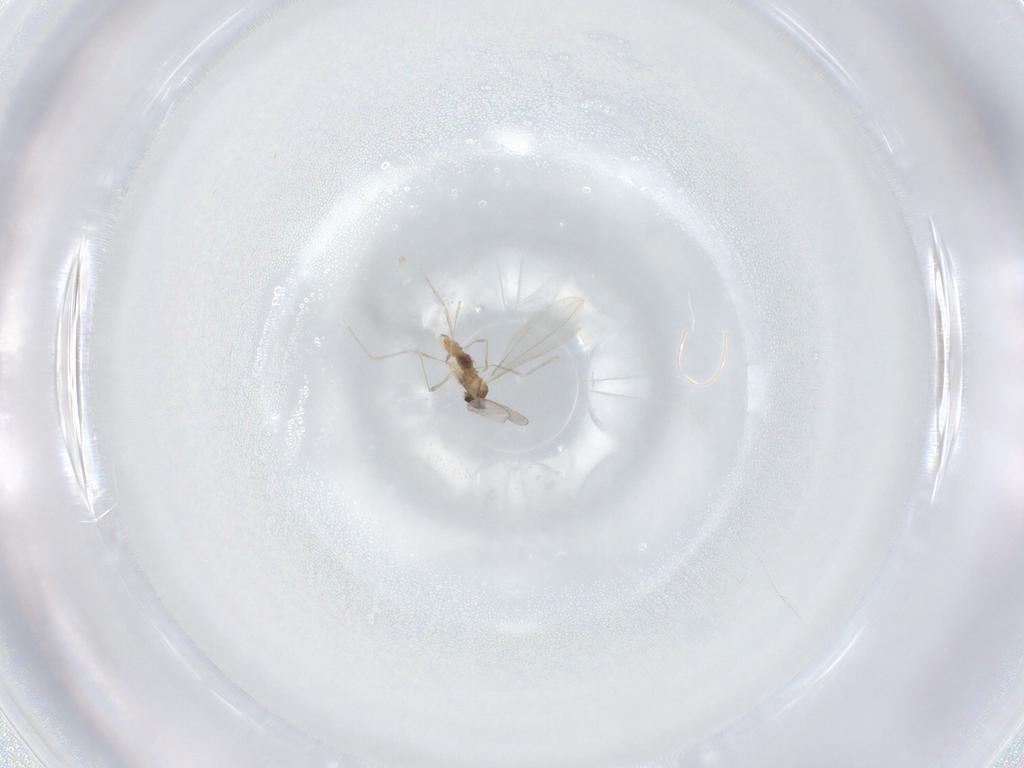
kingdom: Animalia
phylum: Arthropoda
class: Insecta
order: Diptera
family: Cecidomyiidae
